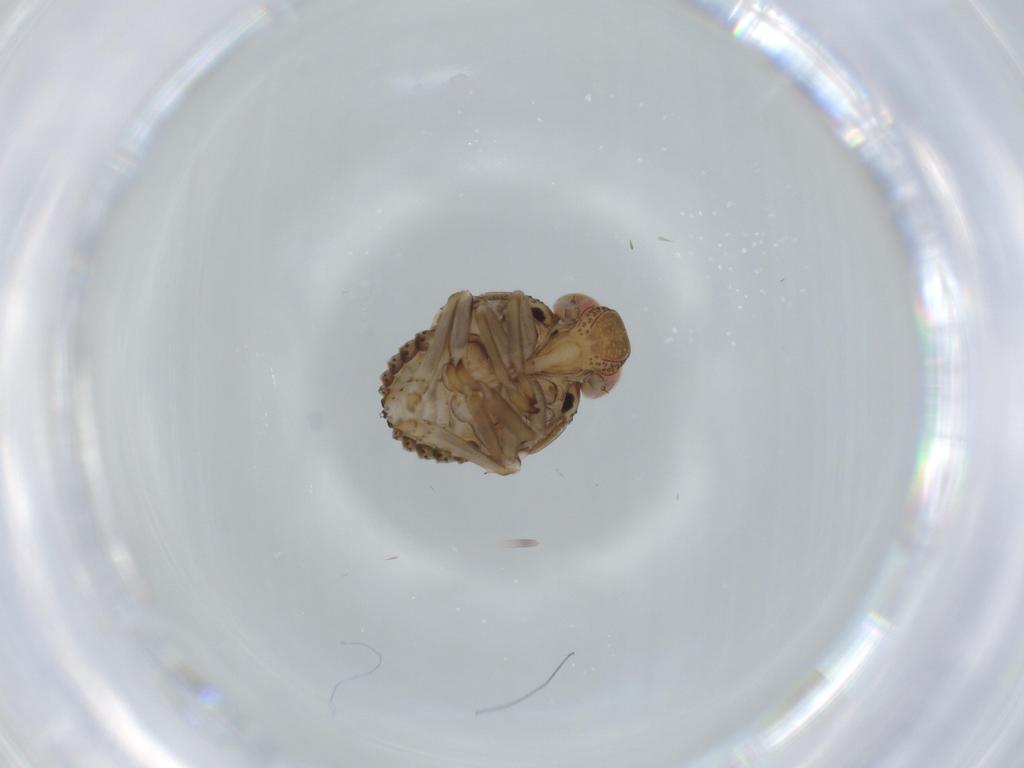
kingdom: Animalia
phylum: Arthropoda
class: Insecta
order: Hemiptera
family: Issidae
